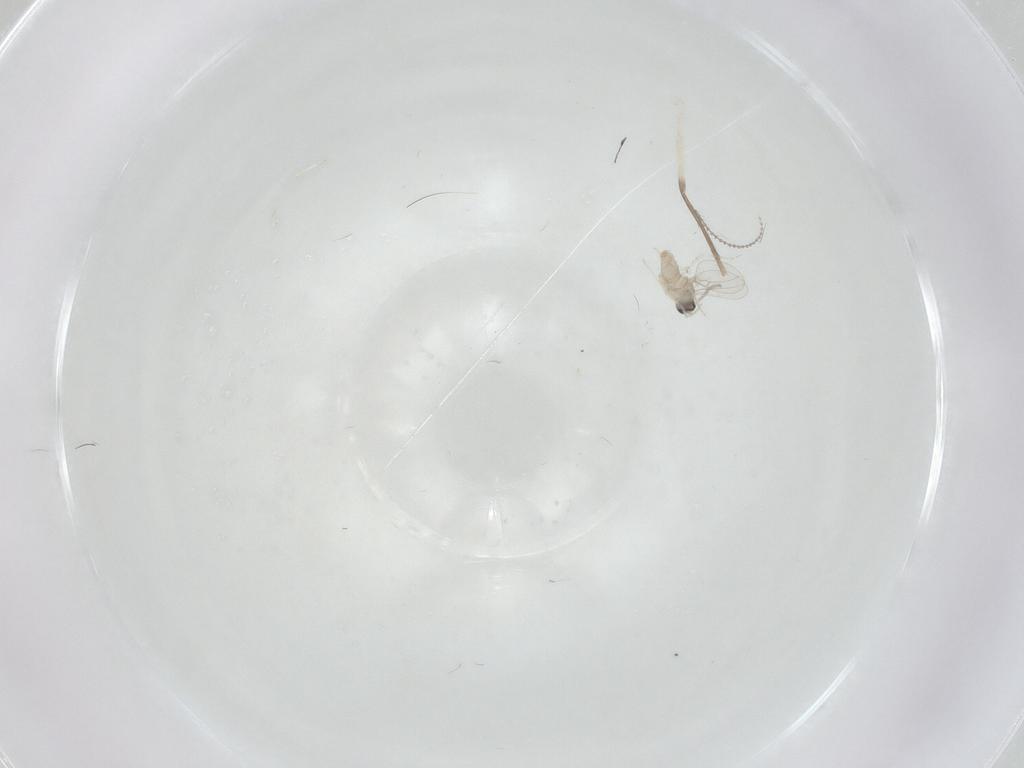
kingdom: Animalia
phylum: Arthropoda
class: Insecta
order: Diptera
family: Chironomidae
